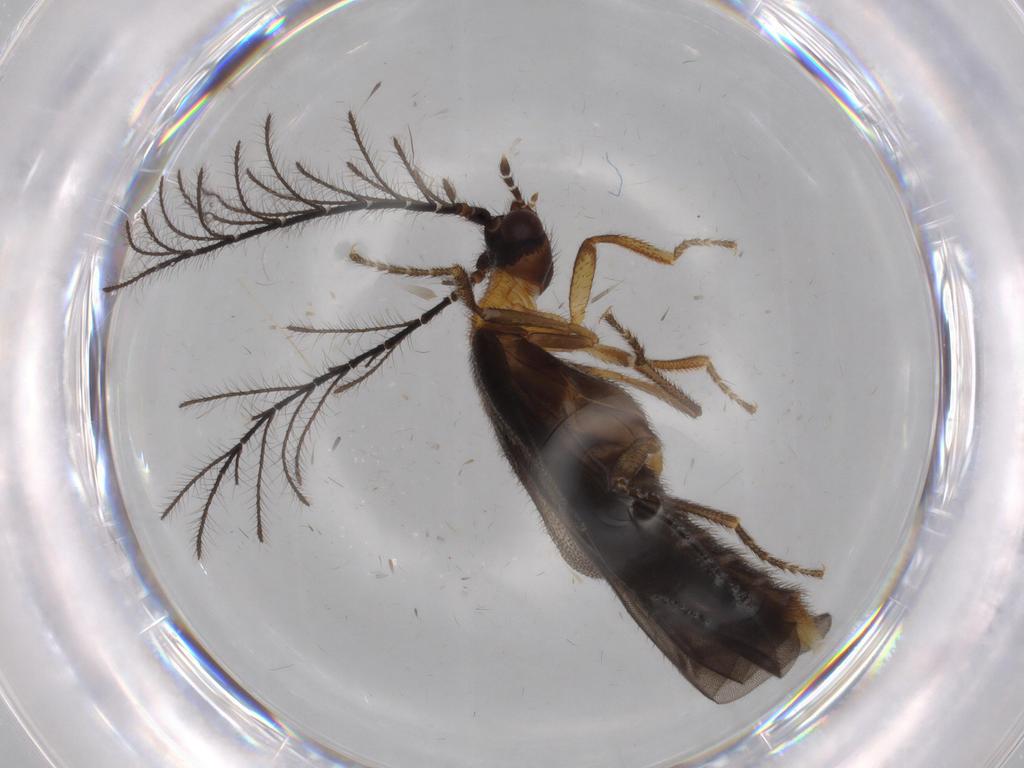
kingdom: Animalia
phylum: Arthropoda
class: Insecta
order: Coleoptera
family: Phengodidae
